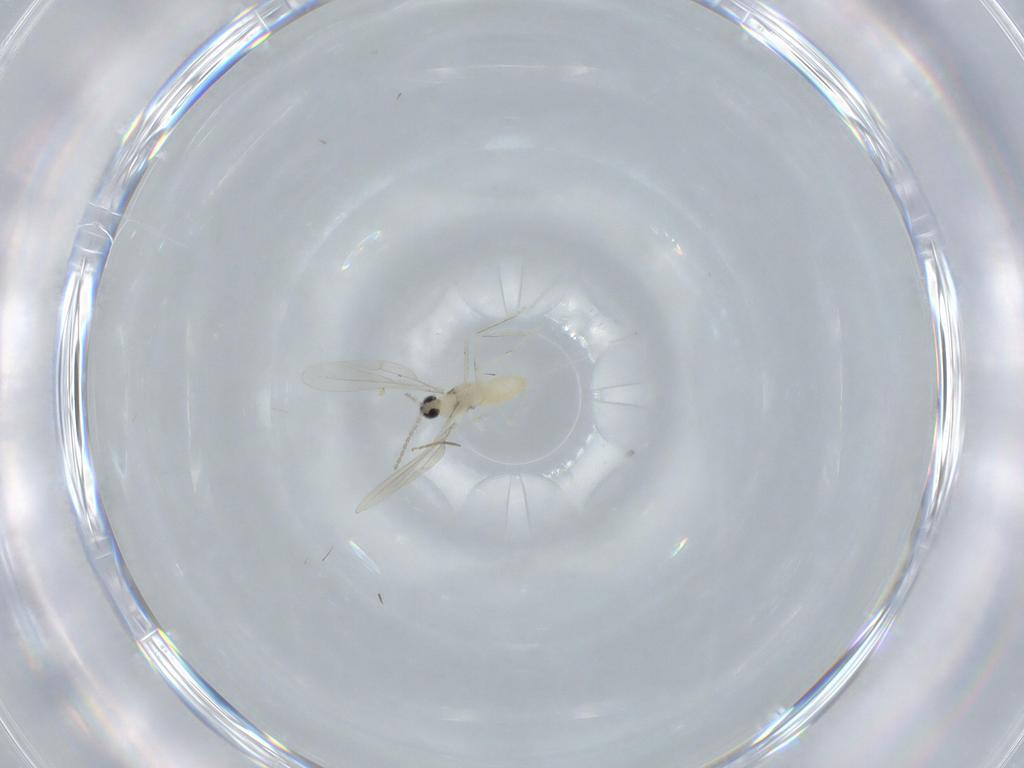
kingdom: Animalia
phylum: Arthropoda
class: Insecta
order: Diptera
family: Cecidomyiidae
